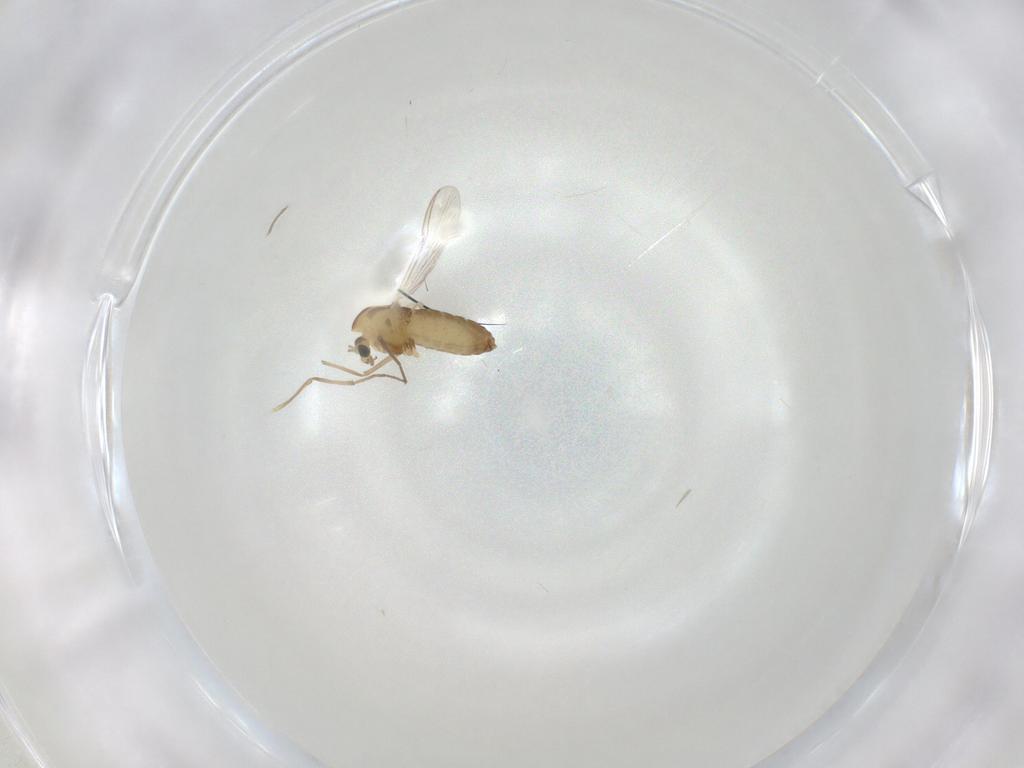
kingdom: Animalia
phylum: Arthropoda
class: Insecta
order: Diptera
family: Chironomidae
